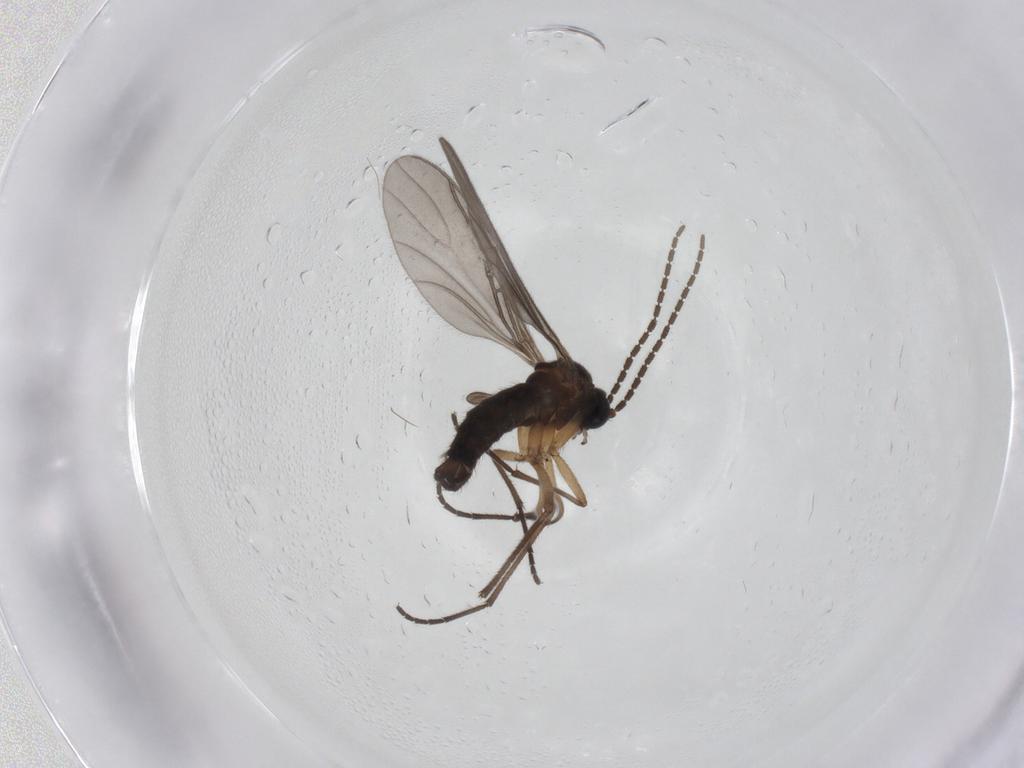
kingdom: Animalia
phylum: Arthropoda
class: Insecta
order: Diptera
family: Sciaridae
